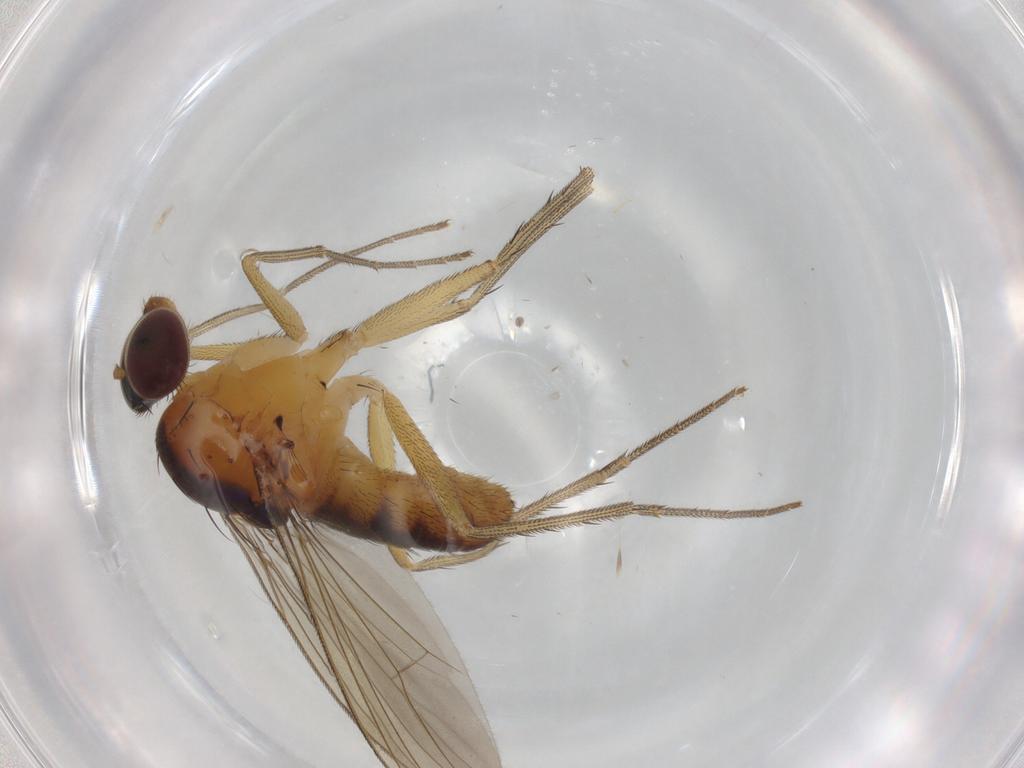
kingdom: Animalia
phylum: Arthropoda
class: Insecta
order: Diptera
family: Dolichopodidae
